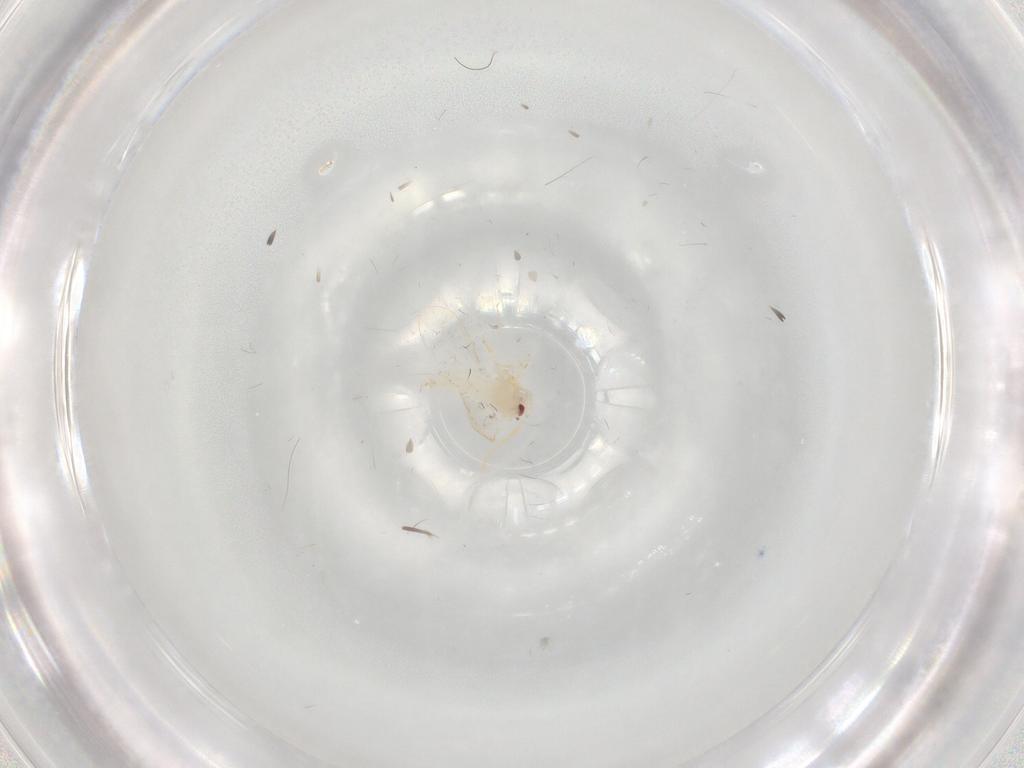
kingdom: Animalia
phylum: Arthropoda
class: Insecta
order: Hemiptera
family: Aleyrodidae
